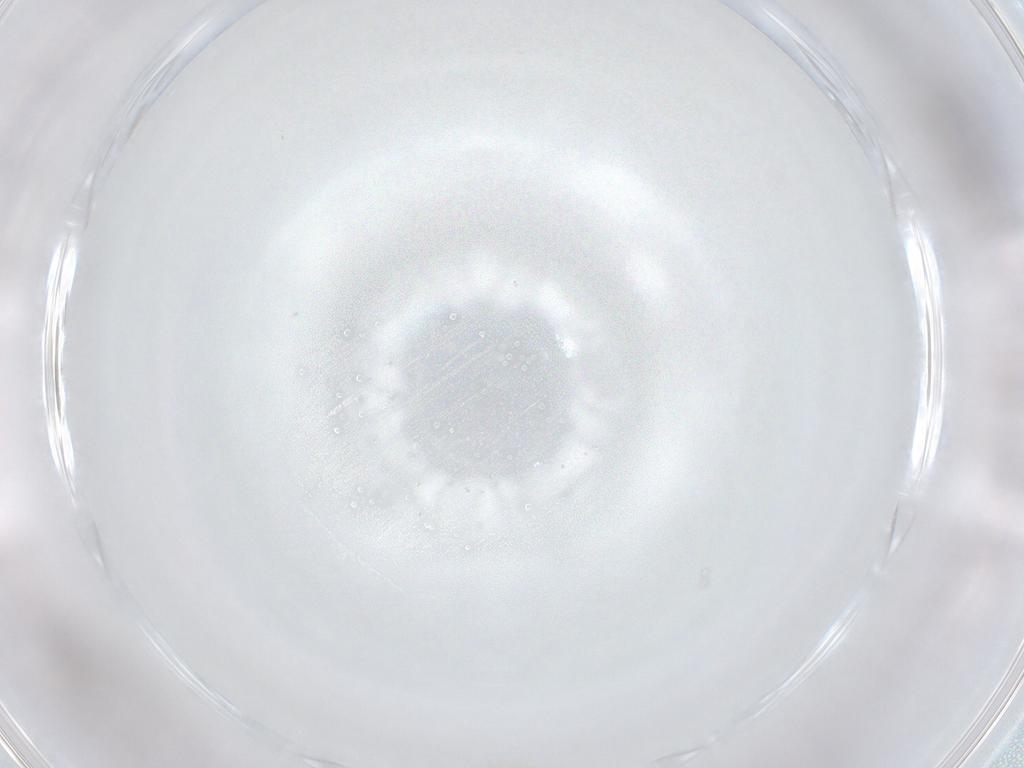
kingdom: Animalia
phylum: Arthropoda
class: Insecta
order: Diptera
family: Cecidomyiidae
